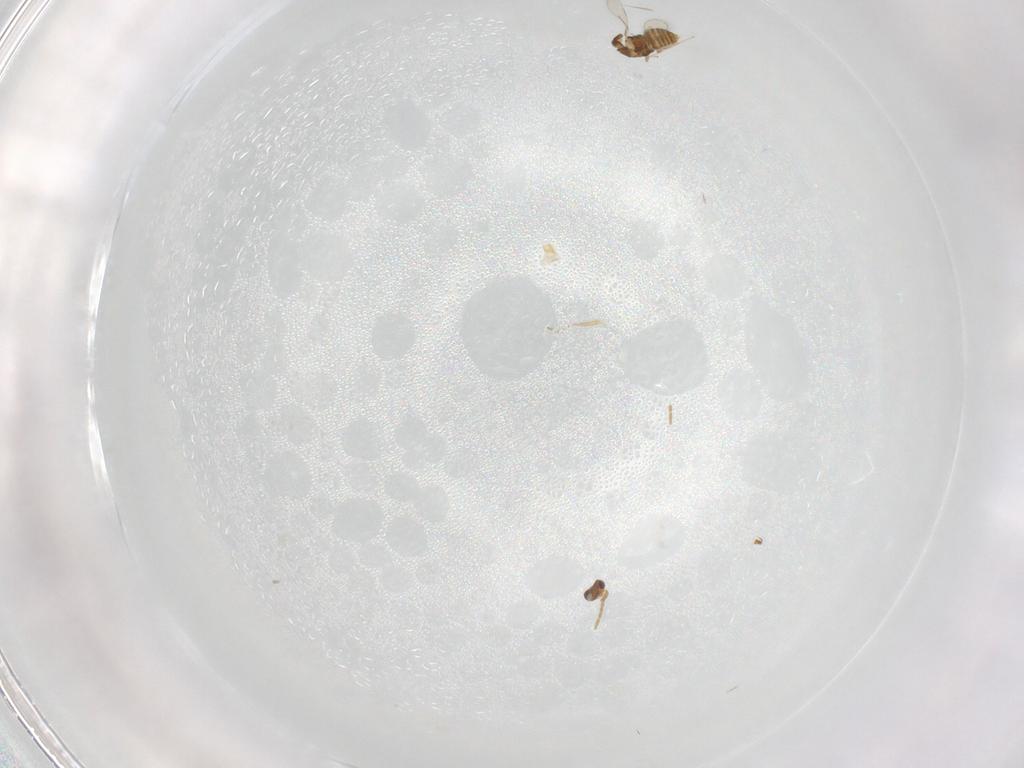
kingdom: Animalia
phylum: Arthropoda
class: Insecta
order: Hymenoptera
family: Aphelinidae
